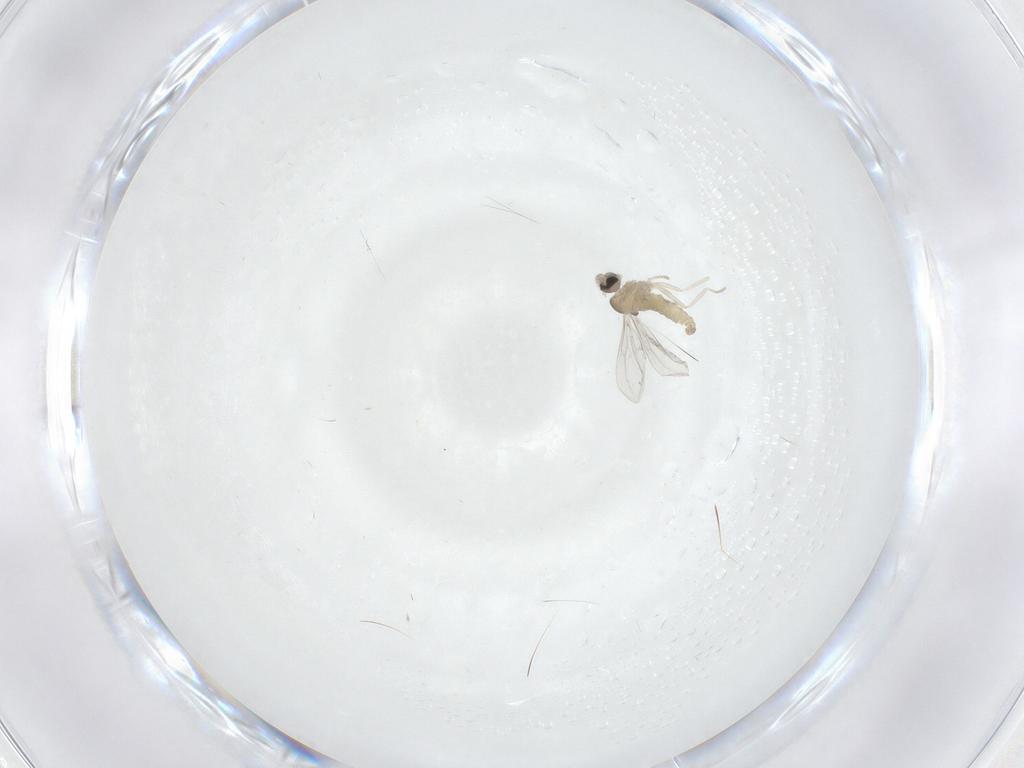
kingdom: Animalia
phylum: Arthropoda
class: Insecta
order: Diptera
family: Cecidomyiidae
